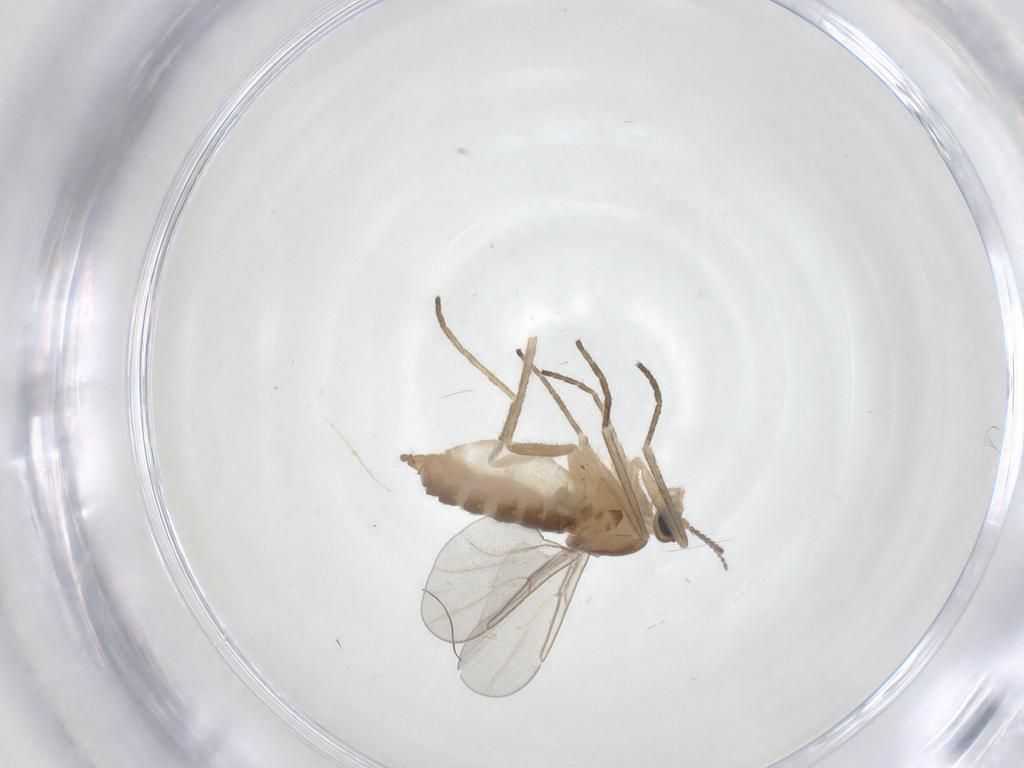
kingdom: Animalia
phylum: Arthropoda
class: Insecta
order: Diptera
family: Cecidomyiidae
